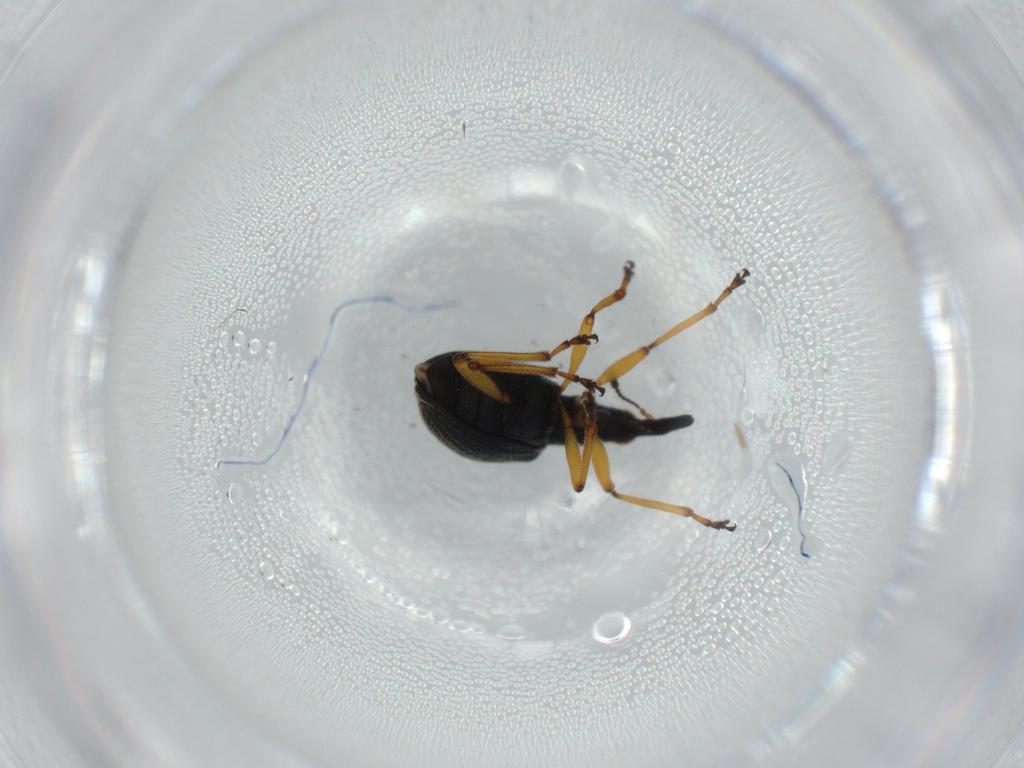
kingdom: Animalia
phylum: Arthropoda
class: Insecta
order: Coleoptera
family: Brentidae
